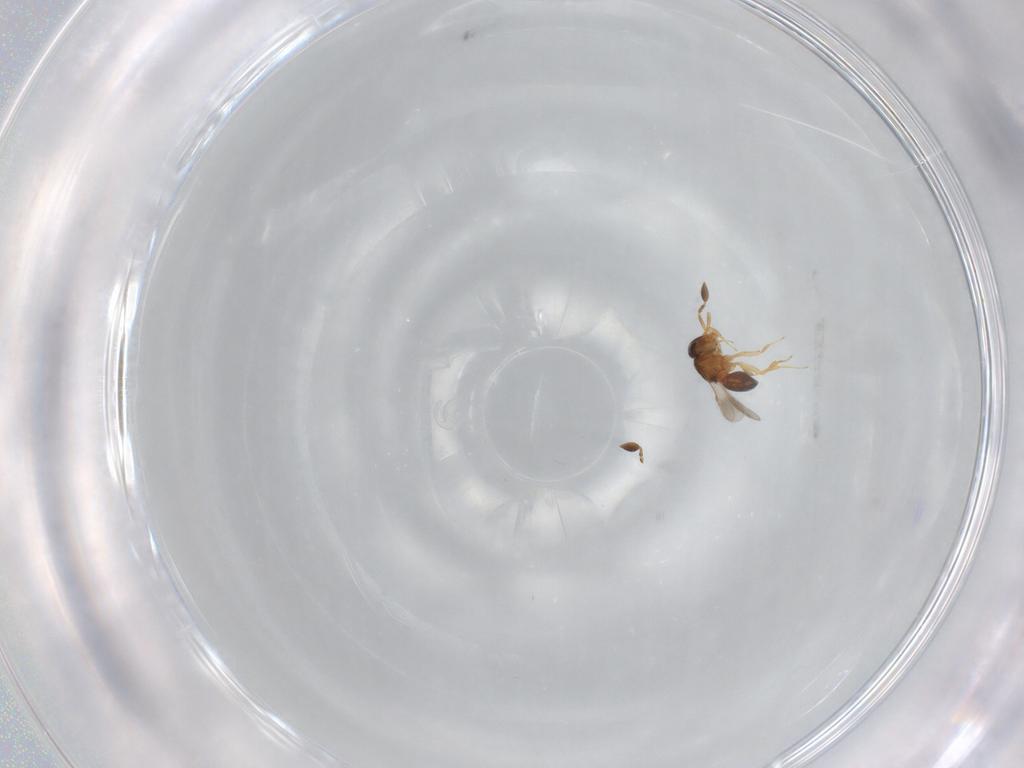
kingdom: Animalia
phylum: Arthropoda
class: Insecta
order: Hymenoptera
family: Scelionidae
